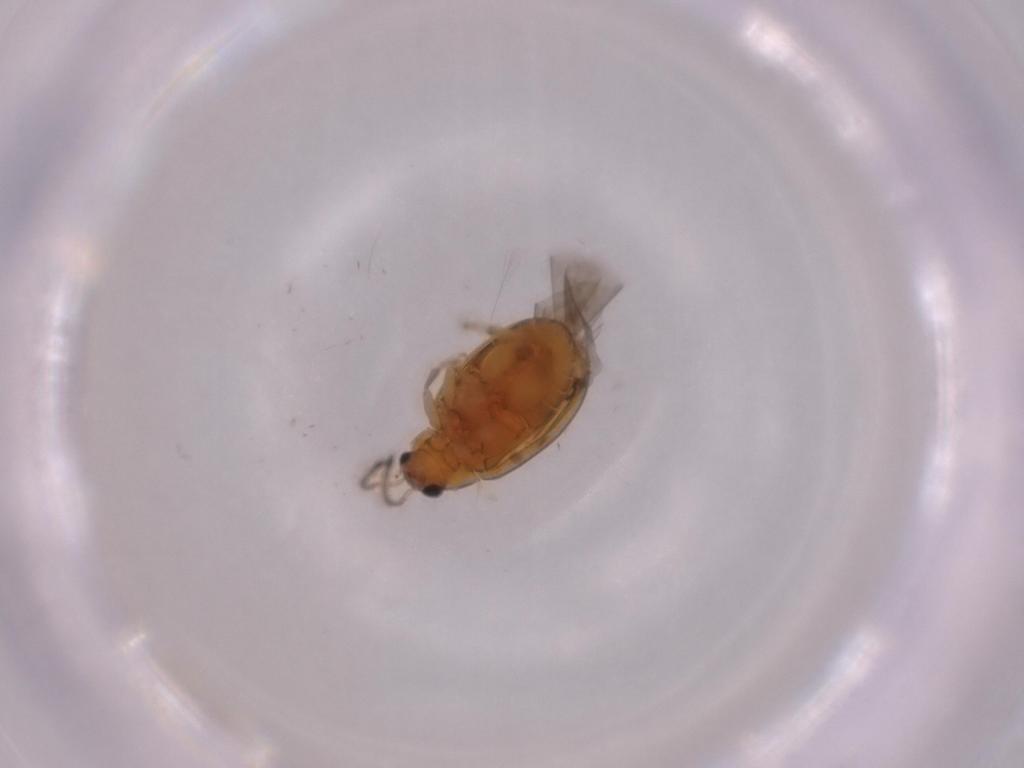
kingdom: Animalia
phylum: Arthropoda
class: Insecta
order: Coleoptera
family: Chrysomelidae
